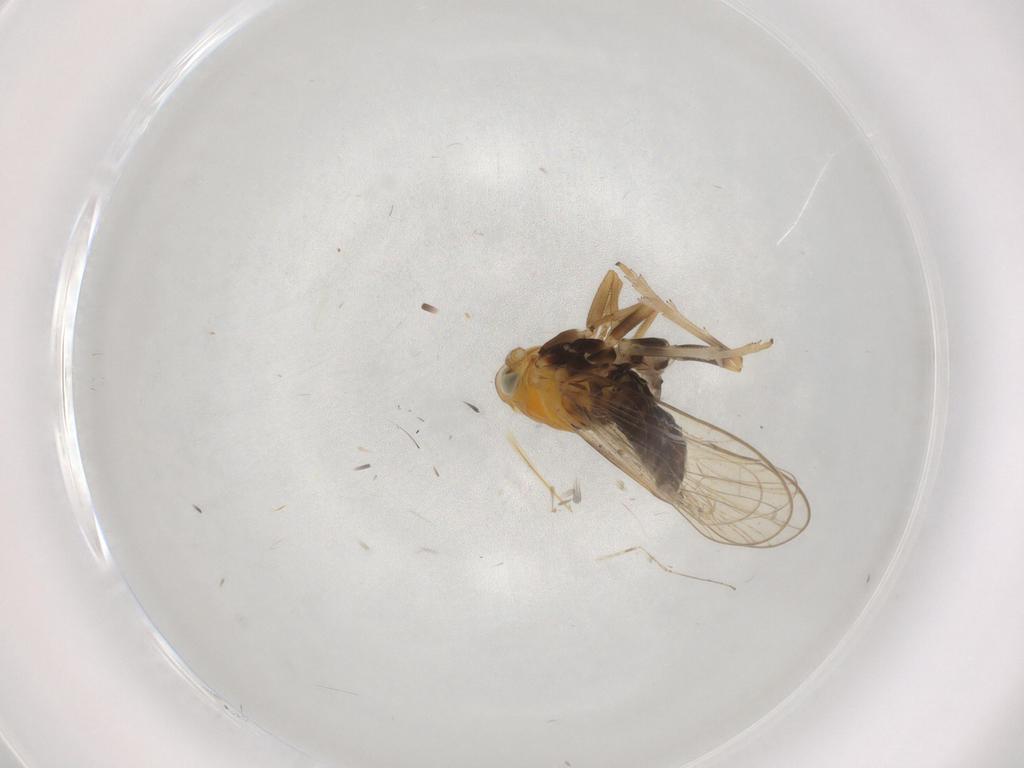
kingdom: Animalia
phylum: Arthropoda
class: Insecta
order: Hemiptera
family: Delphacidae
